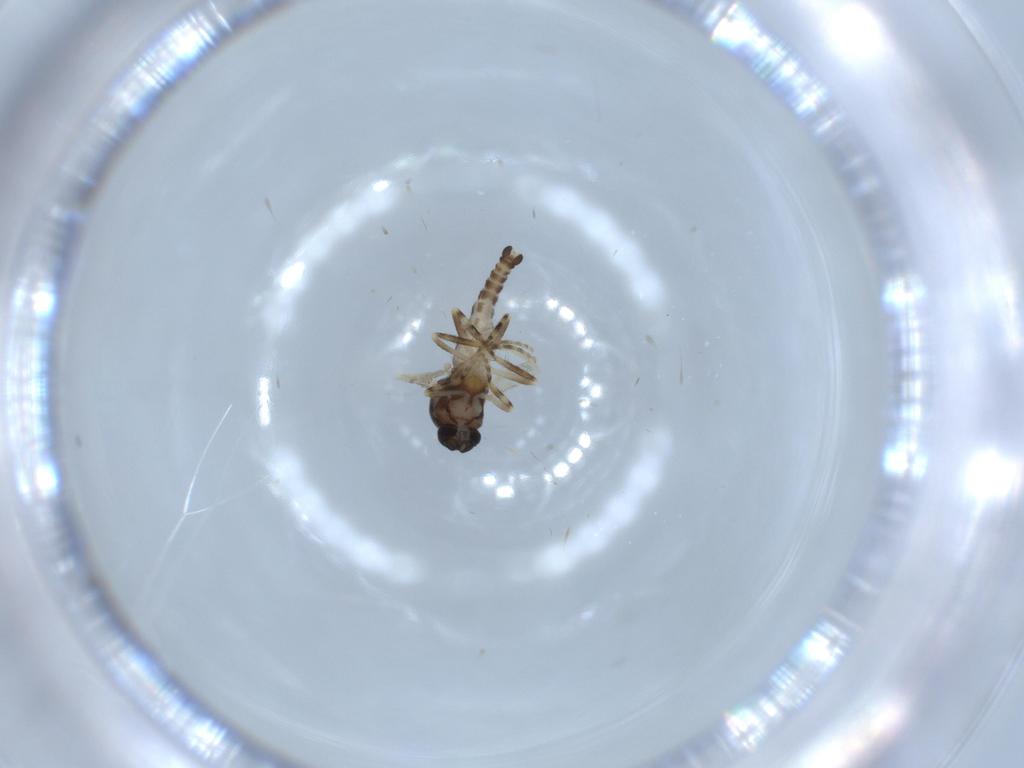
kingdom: Animalia
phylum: Arthropoda
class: Insecta
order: Diptera
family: Ceratopogonidae
